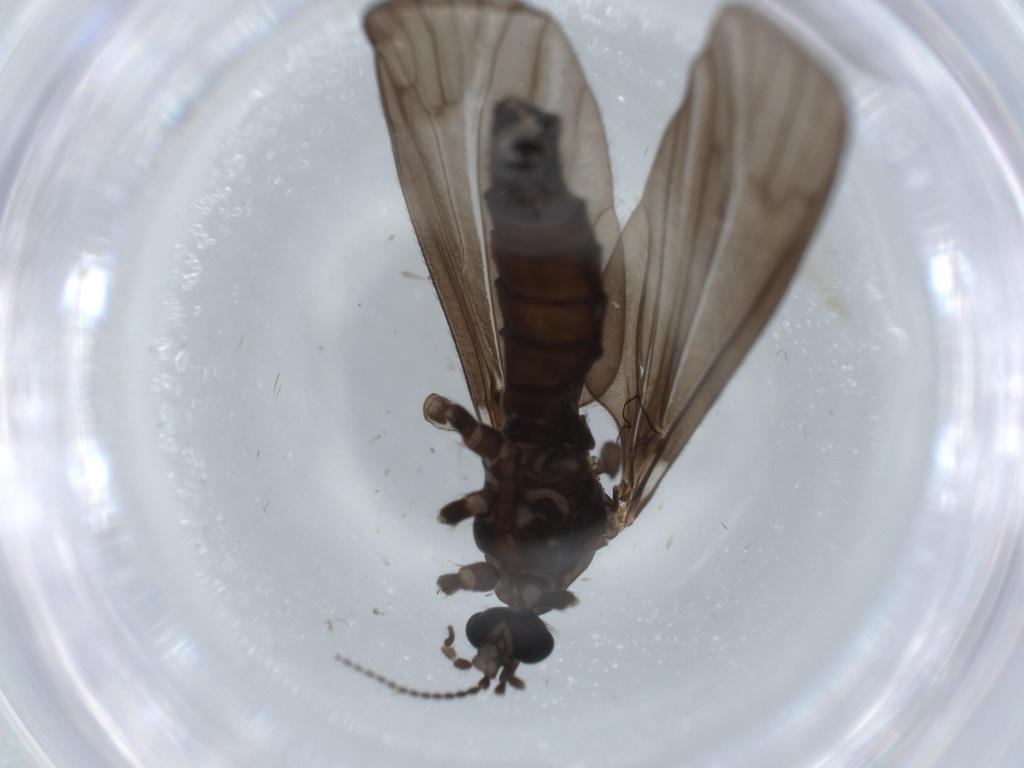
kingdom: Animalia
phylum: Arthropoda
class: Insecta
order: Diptera
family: Limoniidae
